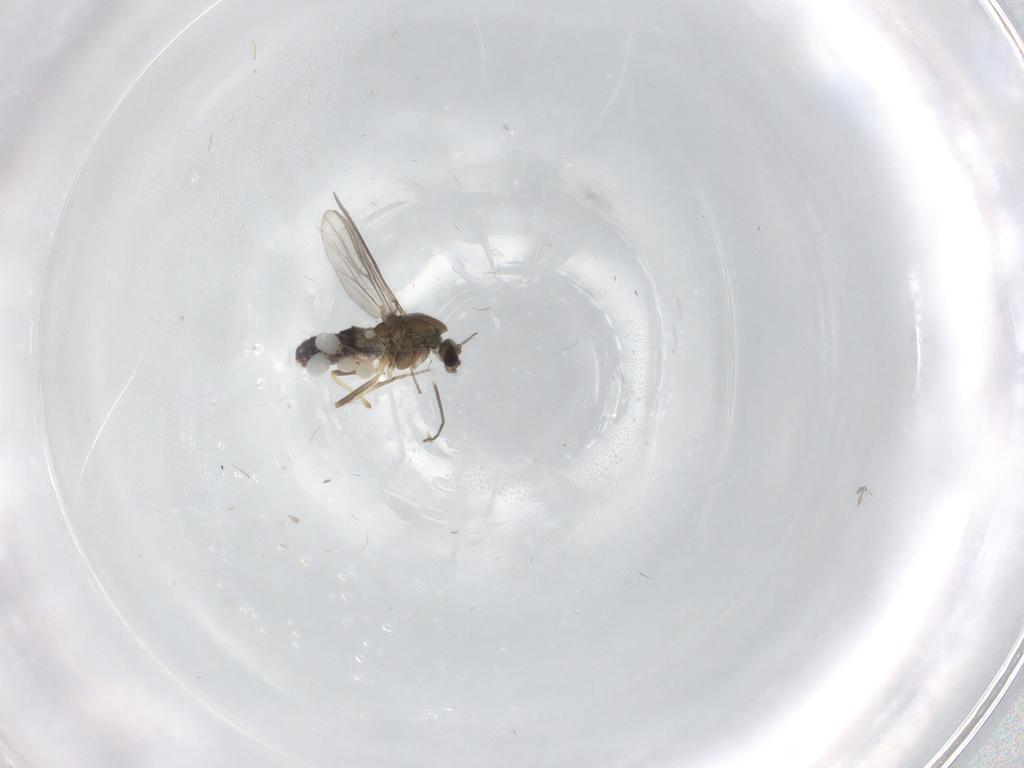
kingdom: Animalia
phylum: Arthropoda
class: Insecta
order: Diptera
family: Chironomidae
